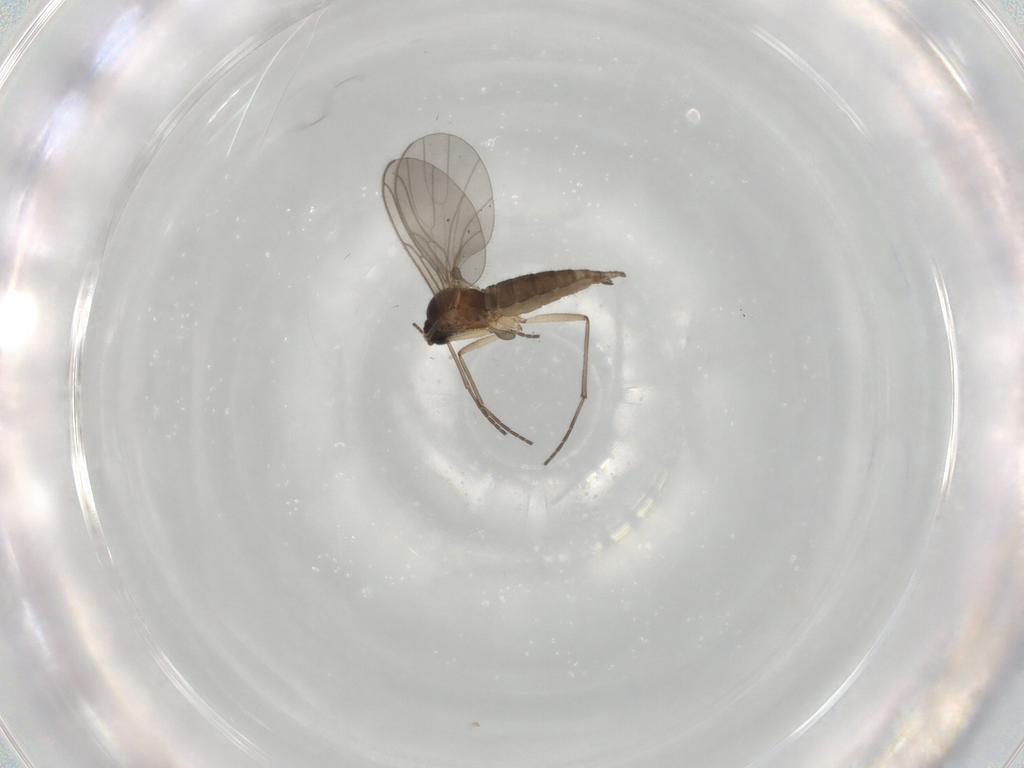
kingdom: Animalia
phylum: Arthropoda
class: Insecta
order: Diptera
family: Sciaridae
